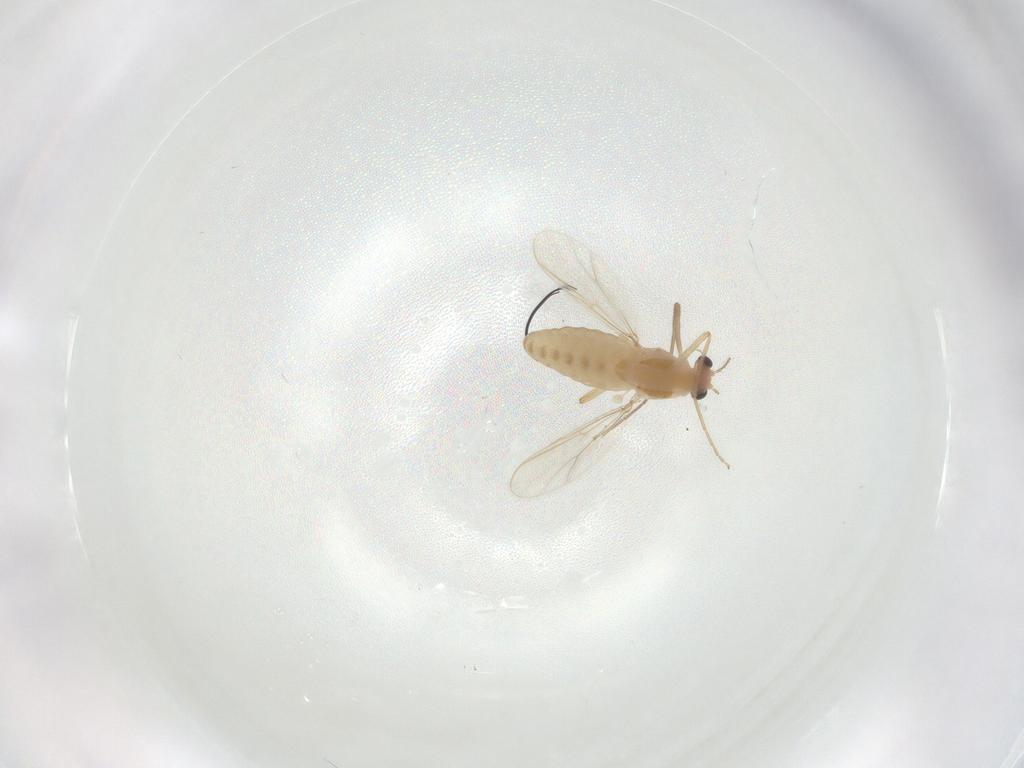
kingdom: Animalia
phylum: Arthropoda
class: Insecta
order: Diptera
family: Chironomidae
